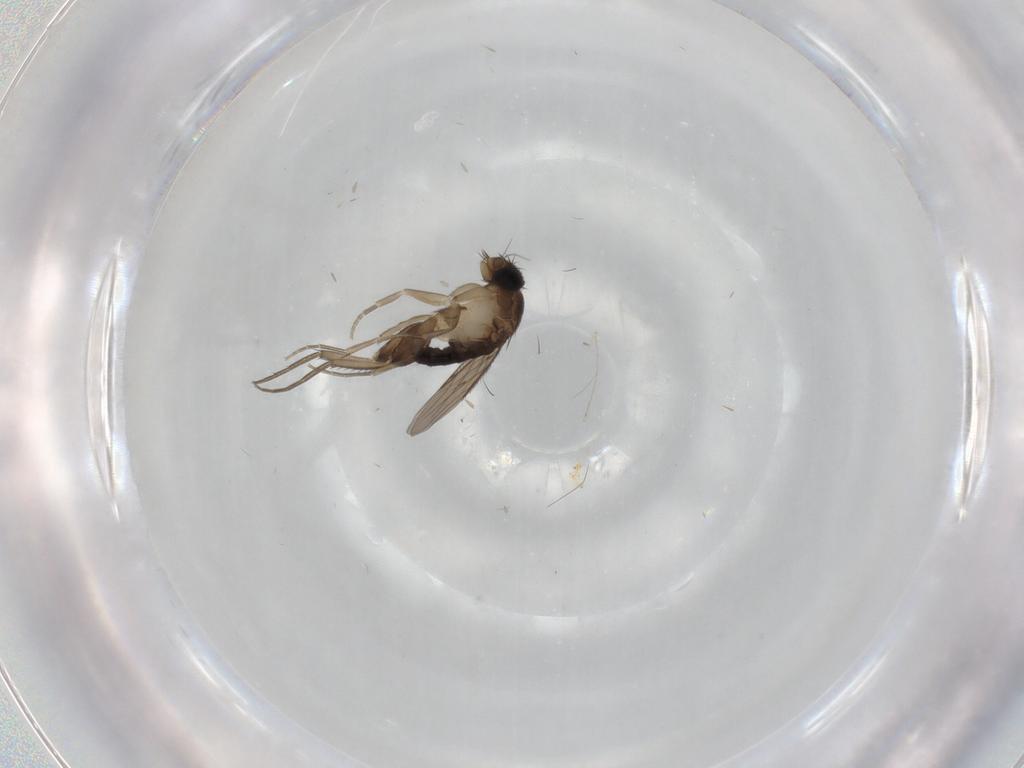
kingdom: Animalia
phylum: Arthropoda
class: Insecta
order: Diptera
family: Phoridae
